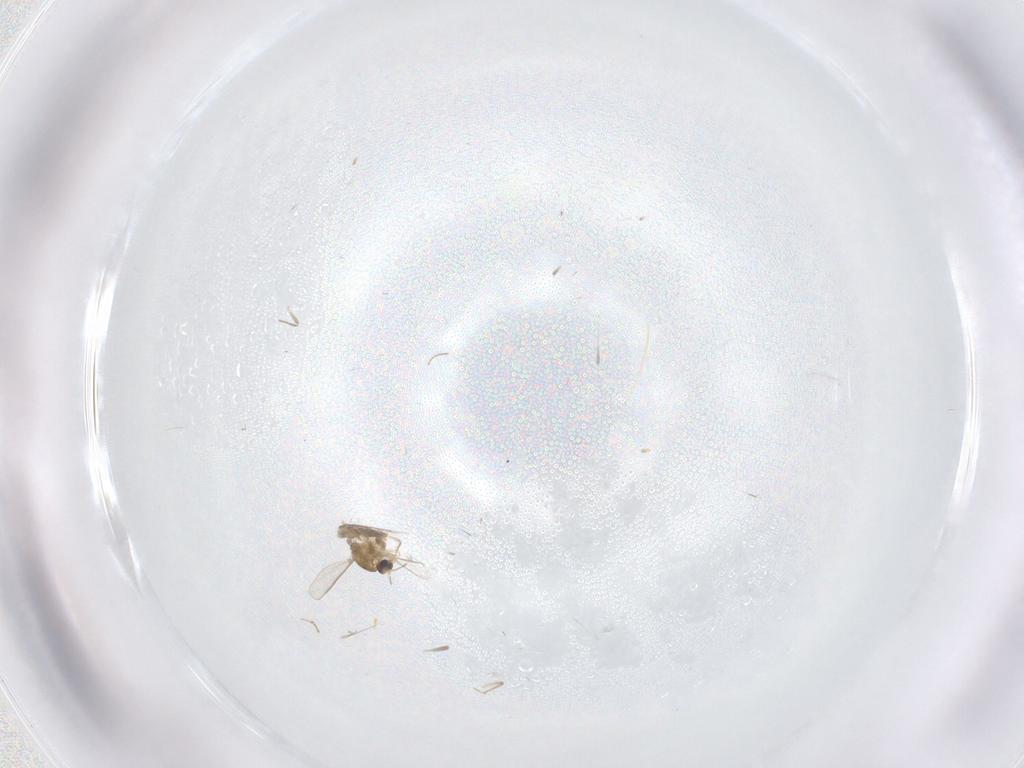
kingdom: Animalia
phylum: Arthropoda
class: Insecta
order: Diptera
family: Chironomidae
